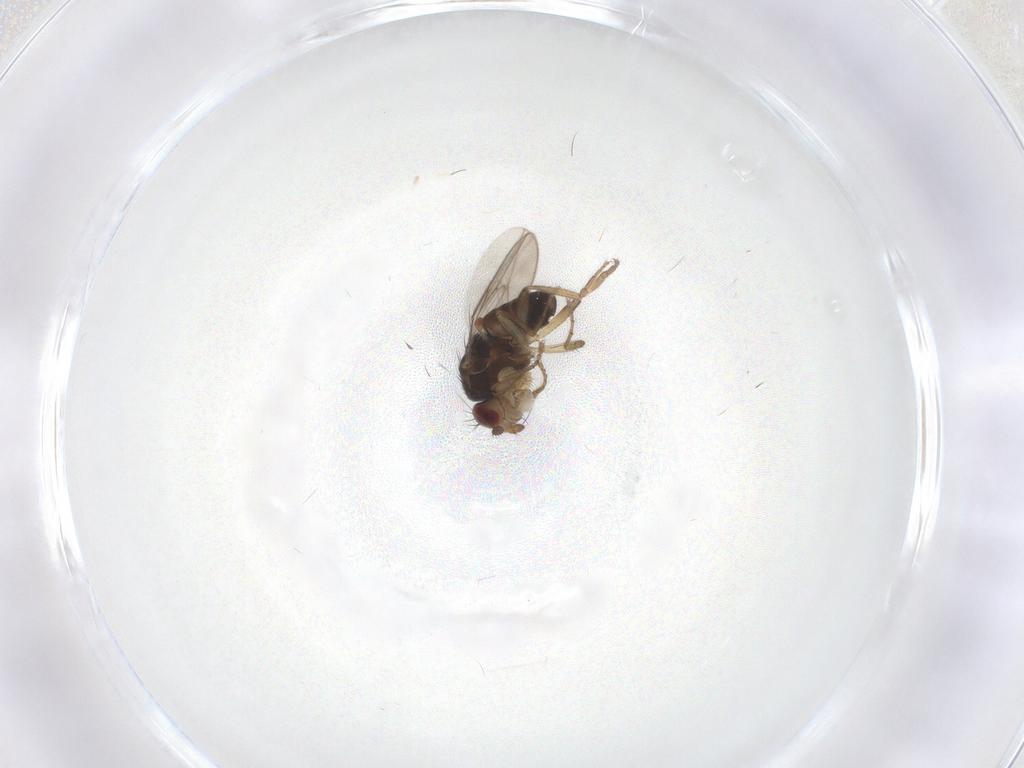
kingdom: Animalia
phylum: Arthropoda
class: Insecta
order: Diptera
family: Sphaeroceridae
